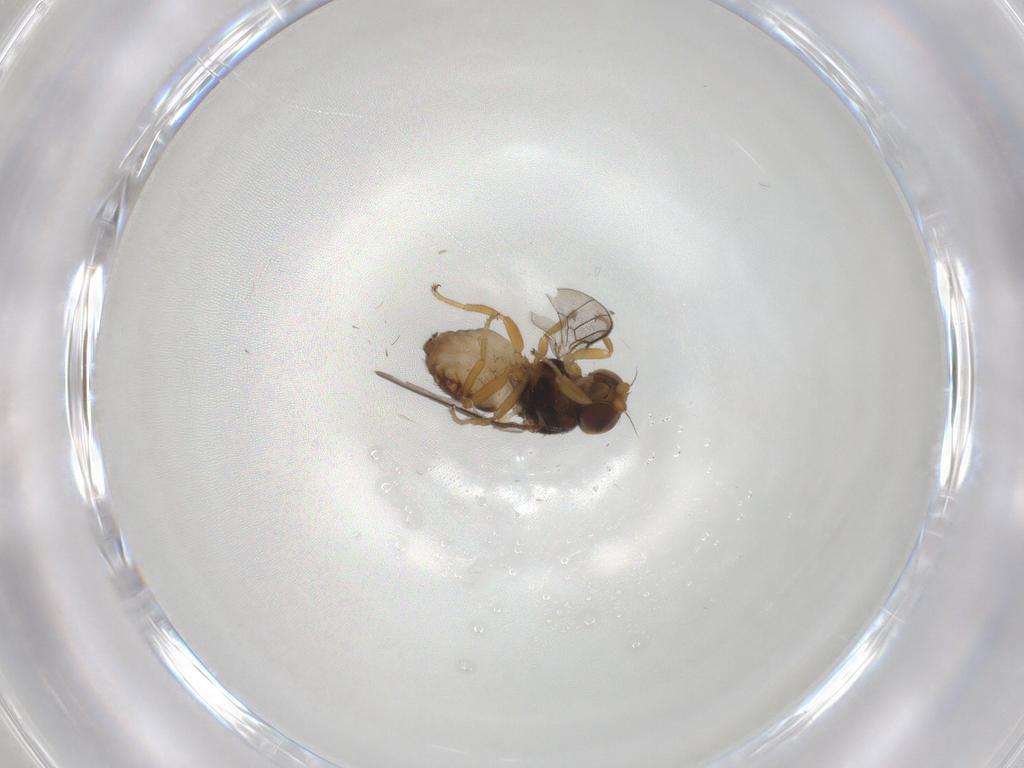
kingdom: Animalia
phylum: Arthropoda
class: Insecta
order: Diptera
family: Chloropidae
